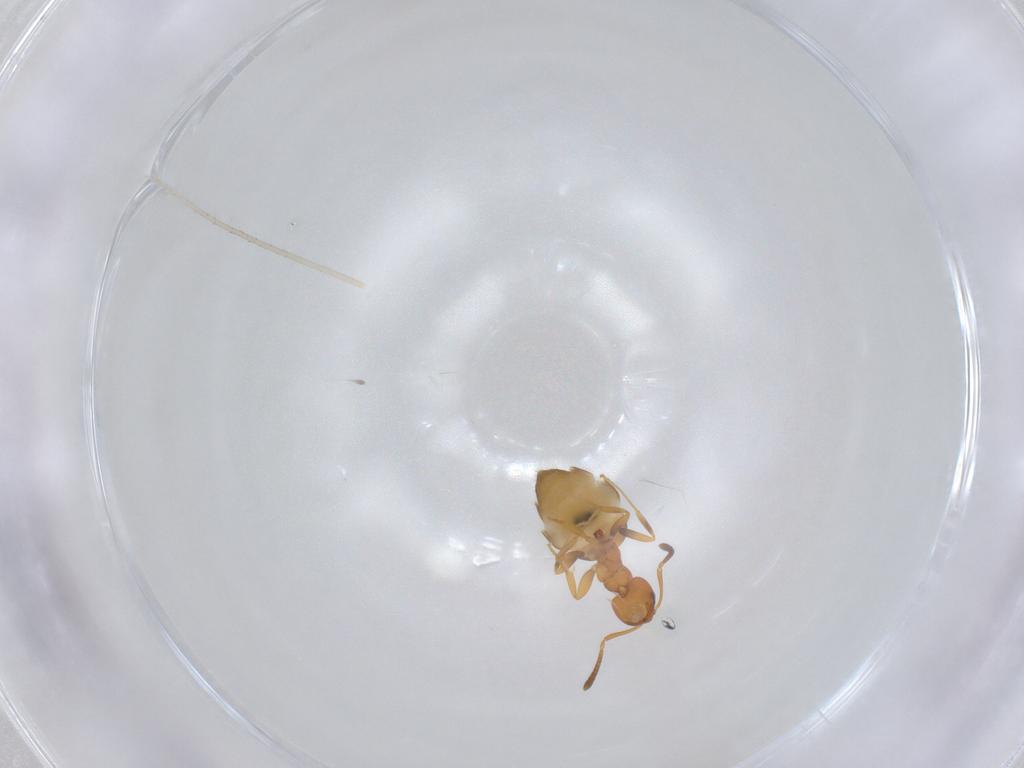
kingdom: Animalia
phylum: Arthropoda
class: Insecta
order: Hymenoptera
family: Formicidae
